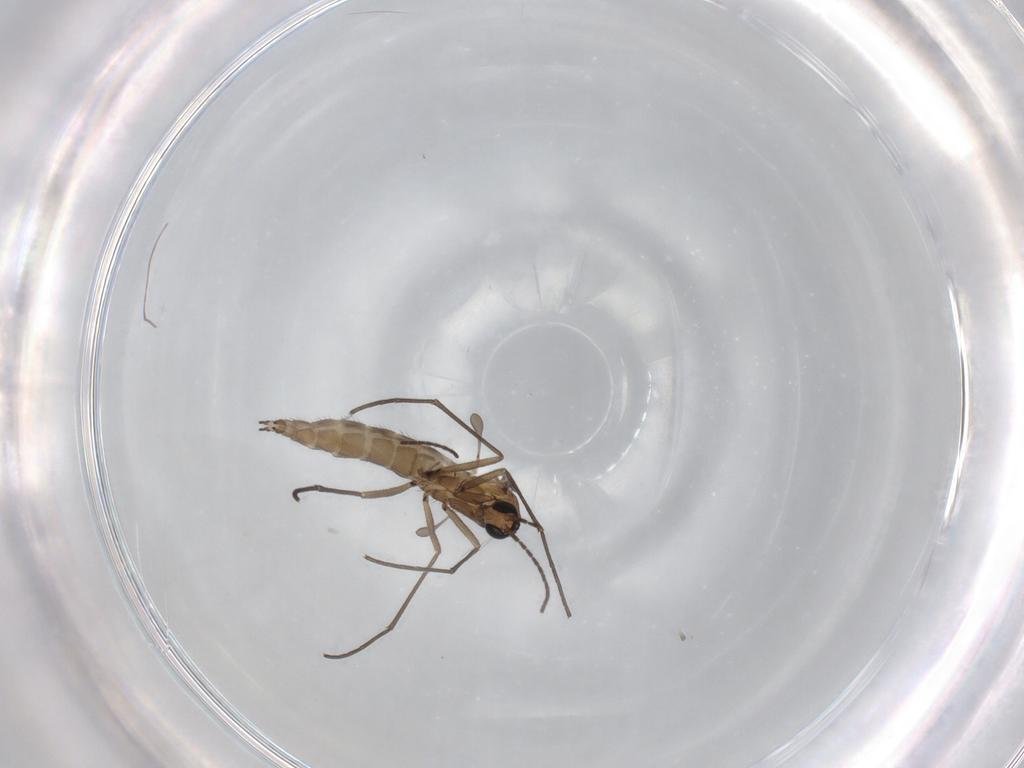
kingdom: Animalia
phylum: Arthropoda
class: Insecta
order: Diptera
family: Sciaridae
